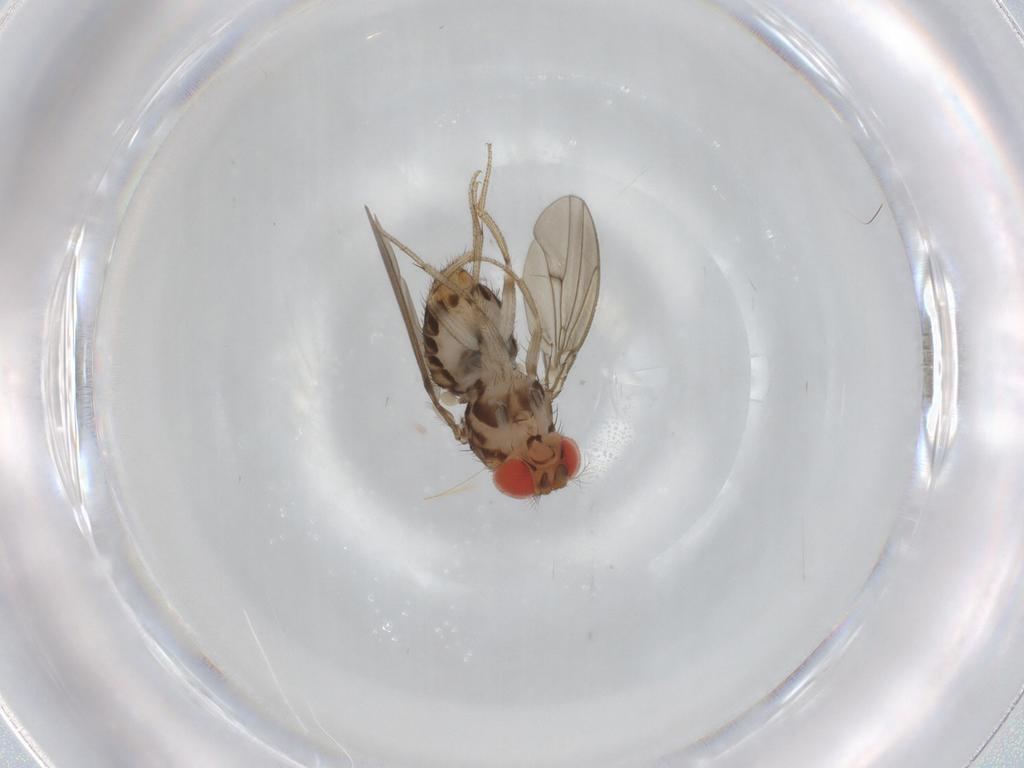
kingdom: Animalia
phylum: Arthropoda
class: Insecta
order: Diptera
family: Drosophilidae
